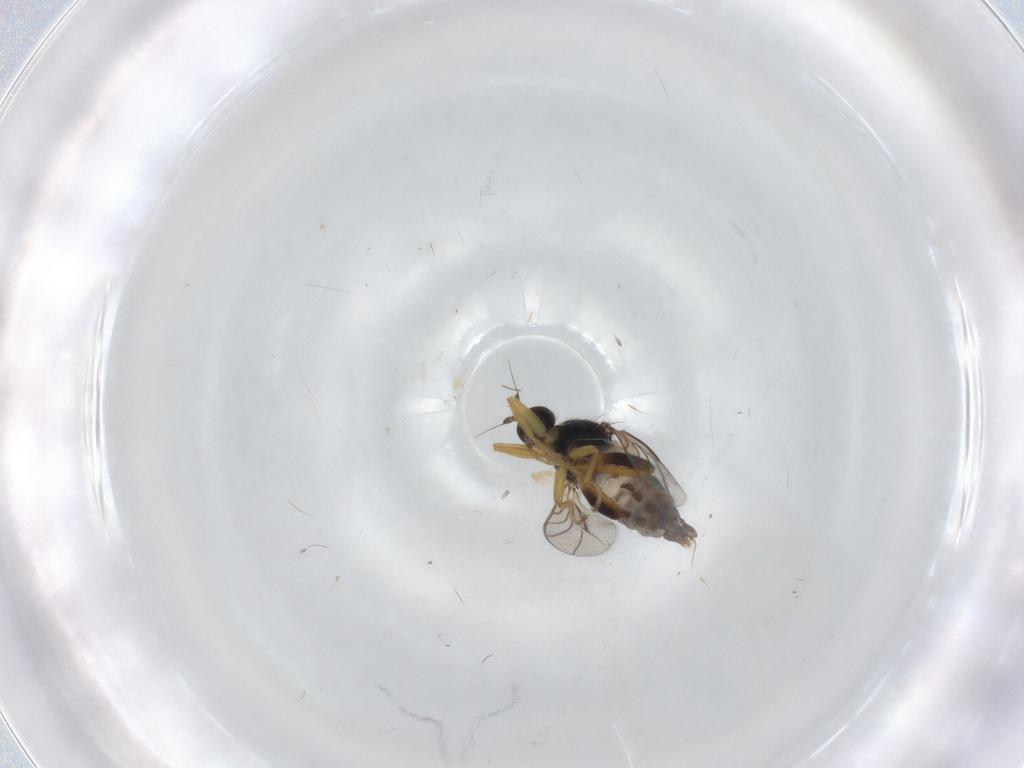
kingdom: Animalia
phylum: Arthropoda
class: Insecta
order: Diptera
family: Hybotidae
